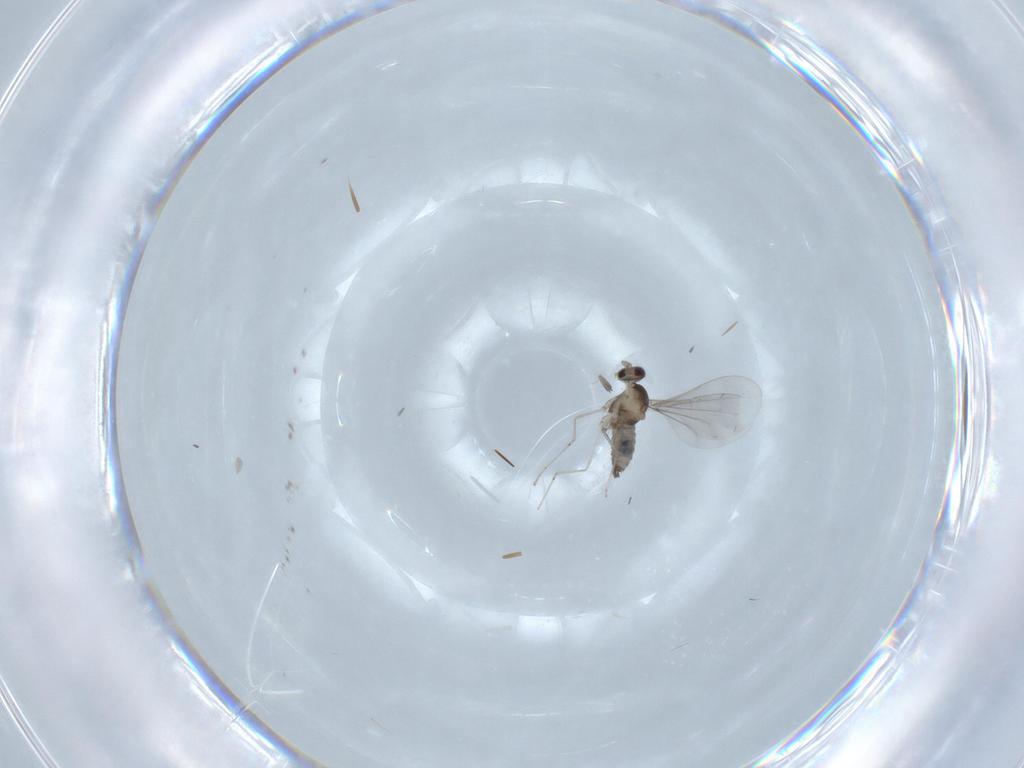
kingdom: Animalia
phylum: Arthropoda
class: Insecta
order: Diptera
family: Cecidomyiidae
